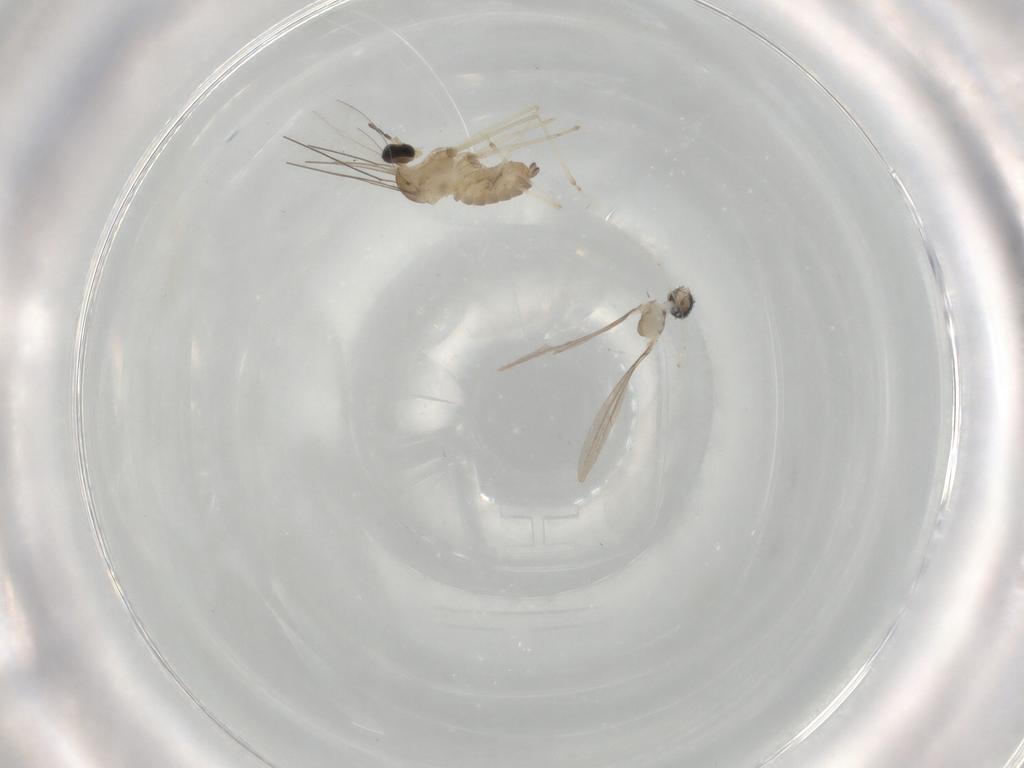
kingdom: Animalia
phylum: Arthropoda
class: Insecta
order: Diptera
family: Cecidomyiidae
